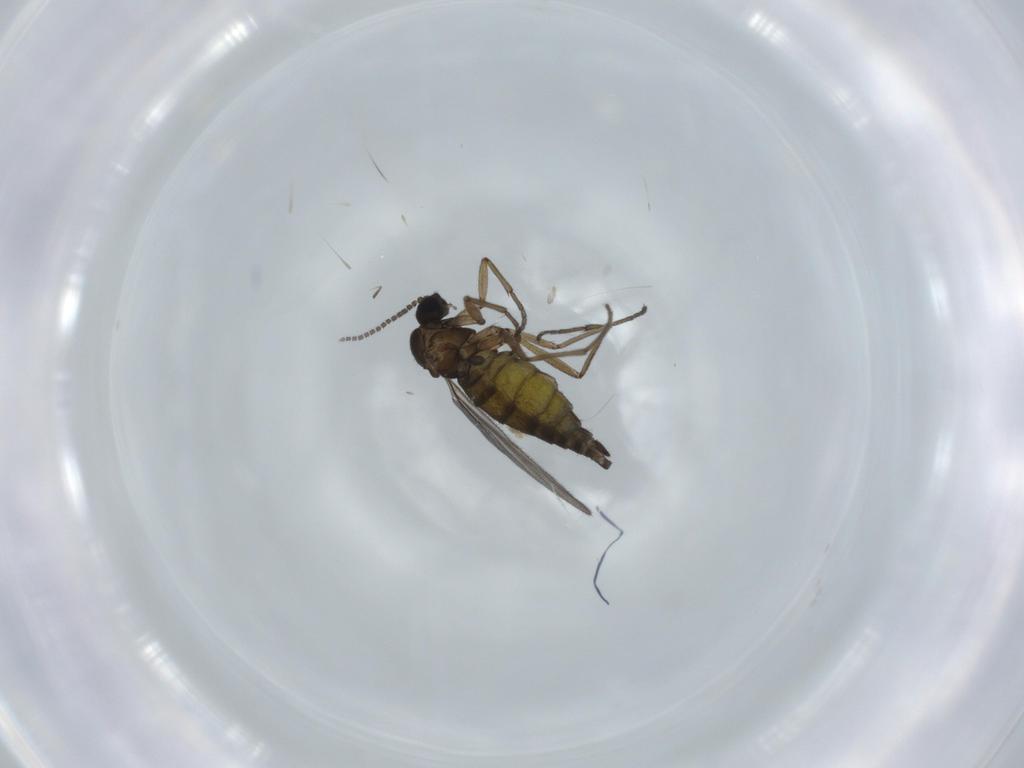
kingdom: Animalia
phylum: Arthropoda
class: Insecta
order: Diptera
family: Sciaridae
